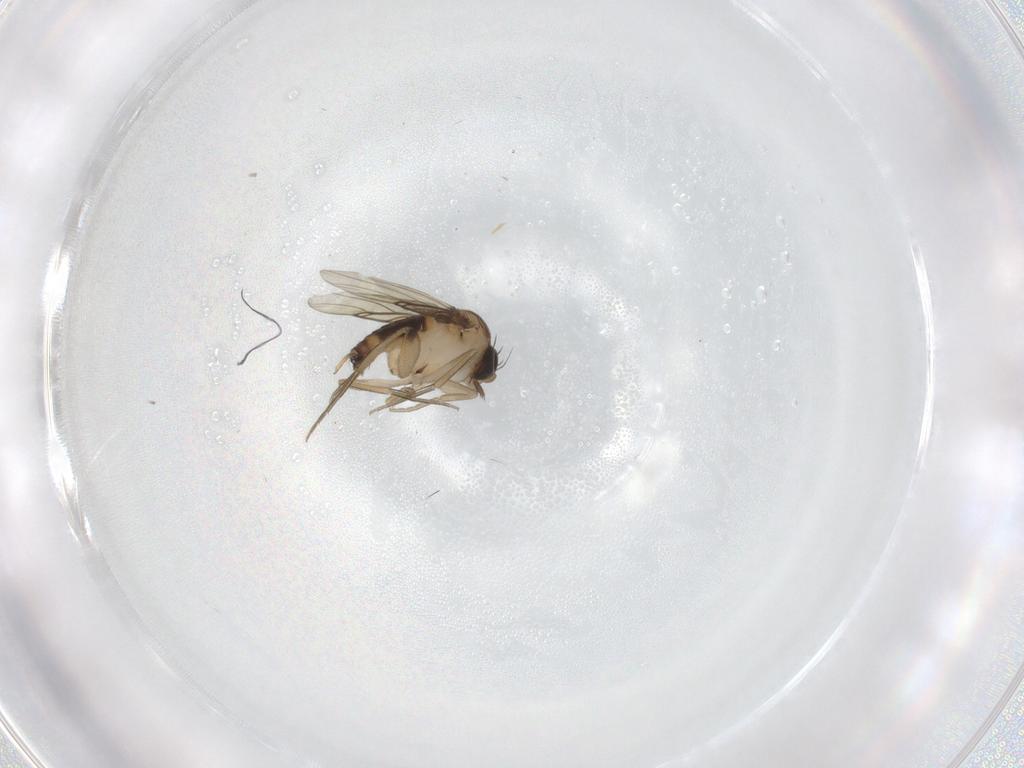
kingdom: Animalia
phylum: Arthropoda
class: Insecta
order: Diptera
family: Phoridae
